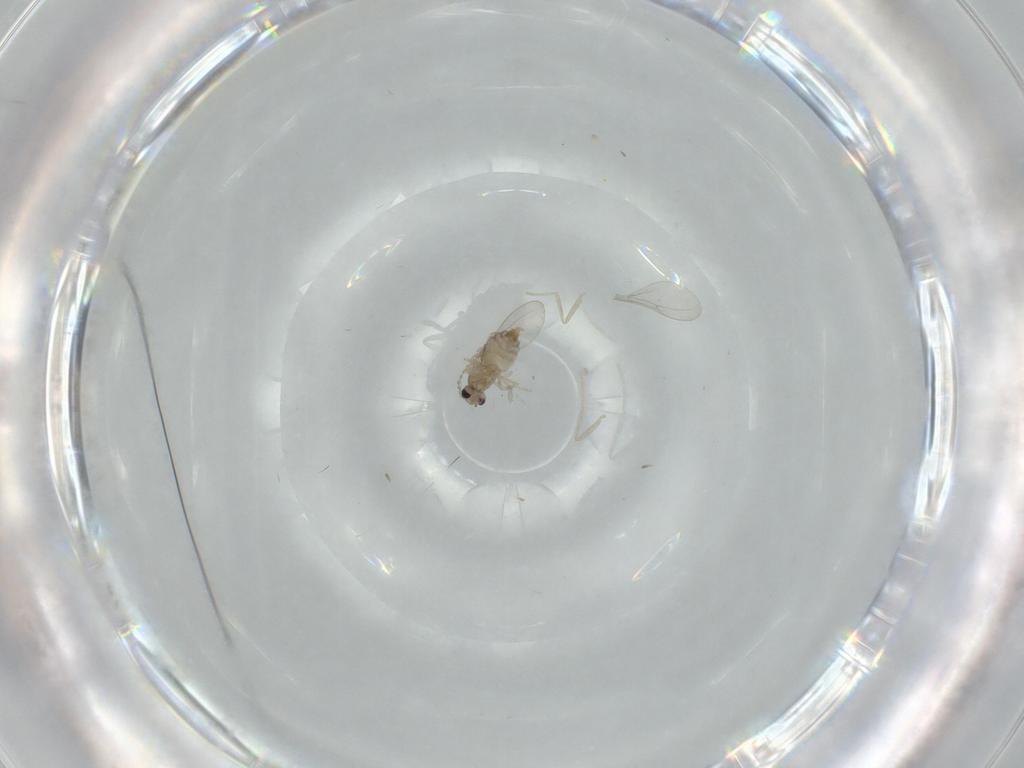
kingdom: Animalia
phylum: Arthropoda
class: Insecta
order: Diptera
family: Cecidomyiidae
